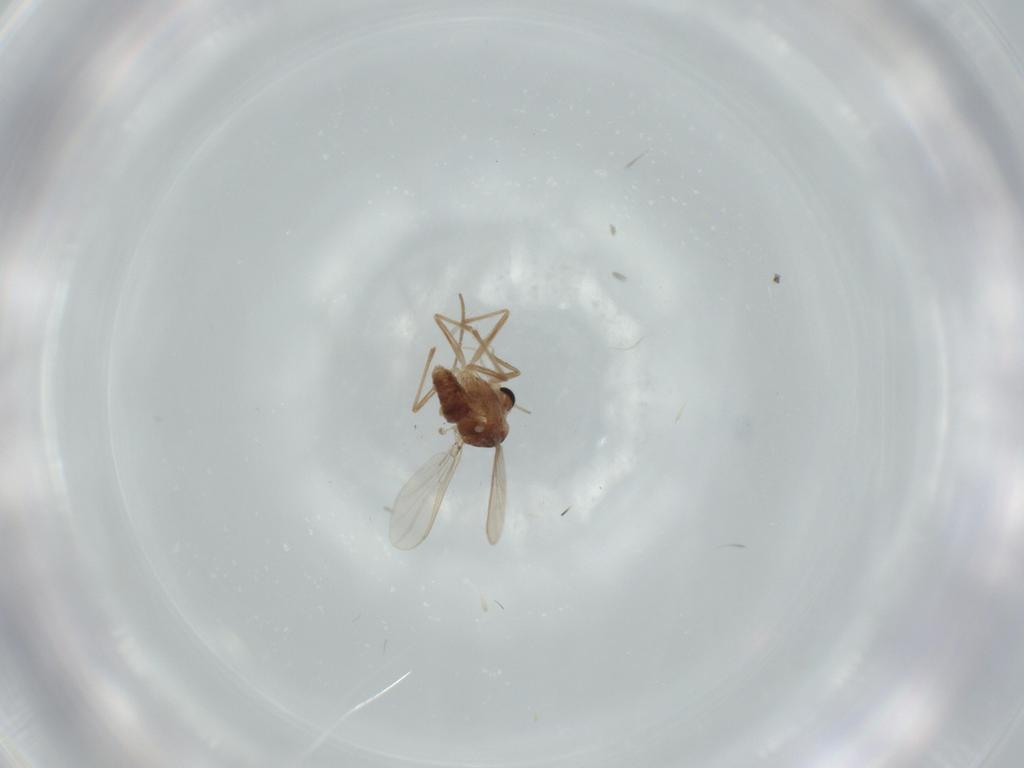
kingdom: Animalia
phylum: Arthropoda
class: Insecta
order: Diptera
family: Chironomidae
